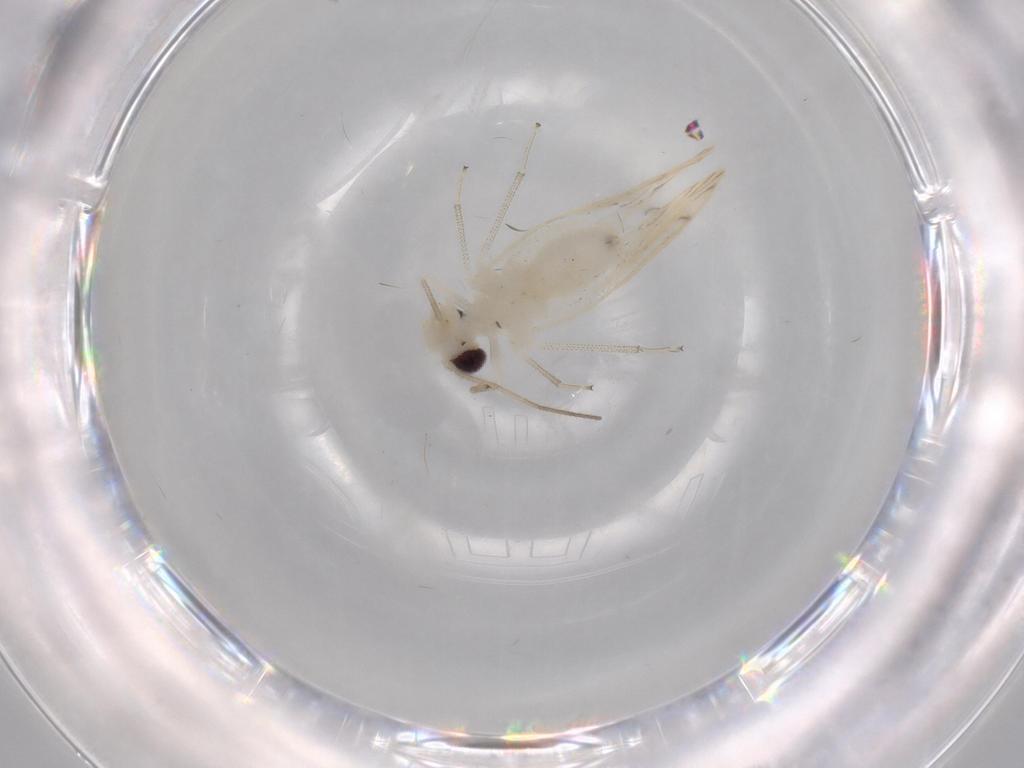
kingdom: Animalia
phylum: Arthropoda
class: Insecta
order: Psocodea
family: Caeciliusidae
